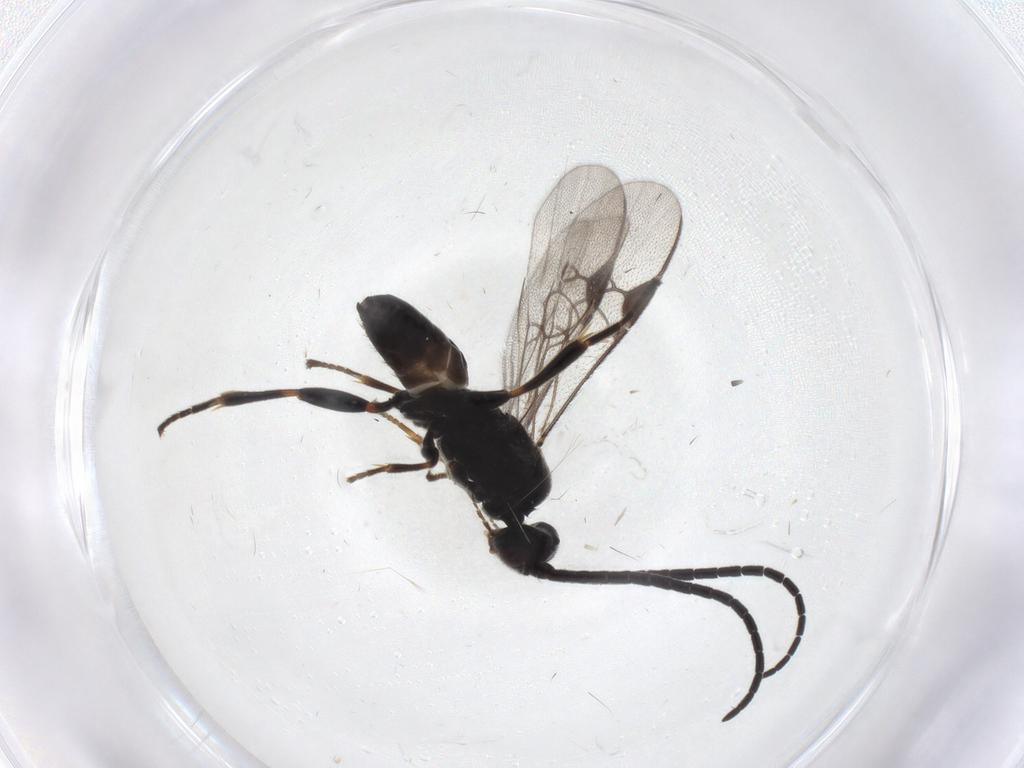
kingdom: Animalia
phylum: Arthropoda
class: Insecta
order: Hymenoptera
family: Braconidae
